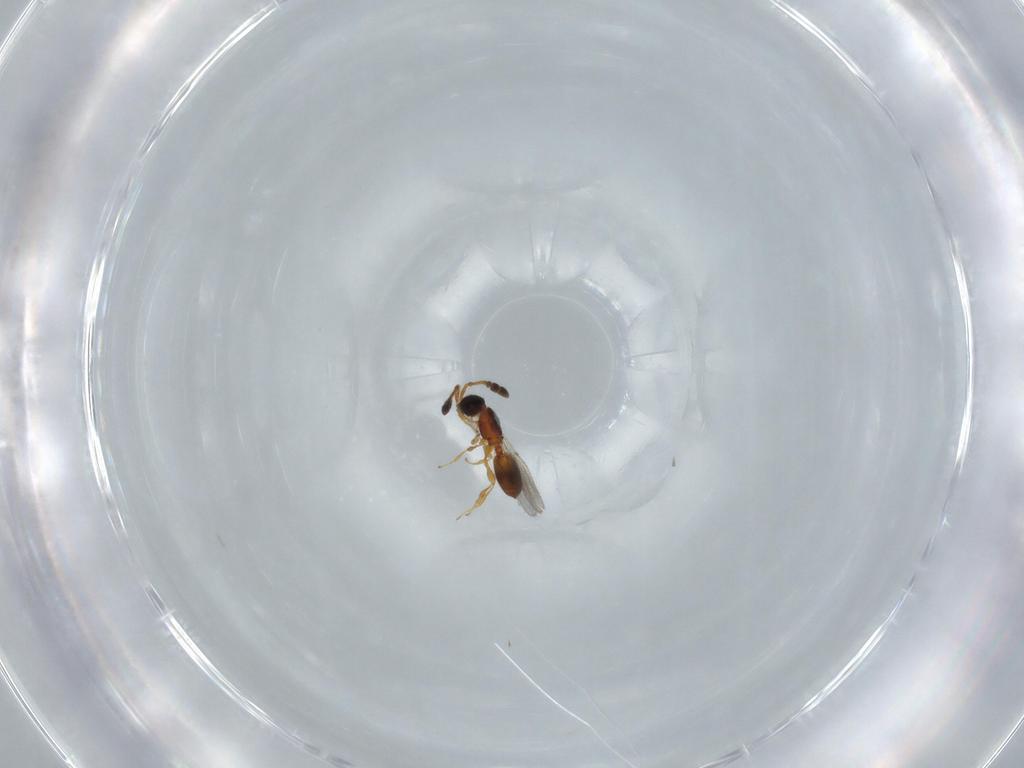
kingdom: Animalia
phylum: Arthropoda
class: Insecta
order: Hymenoptera
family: Diapriidae
